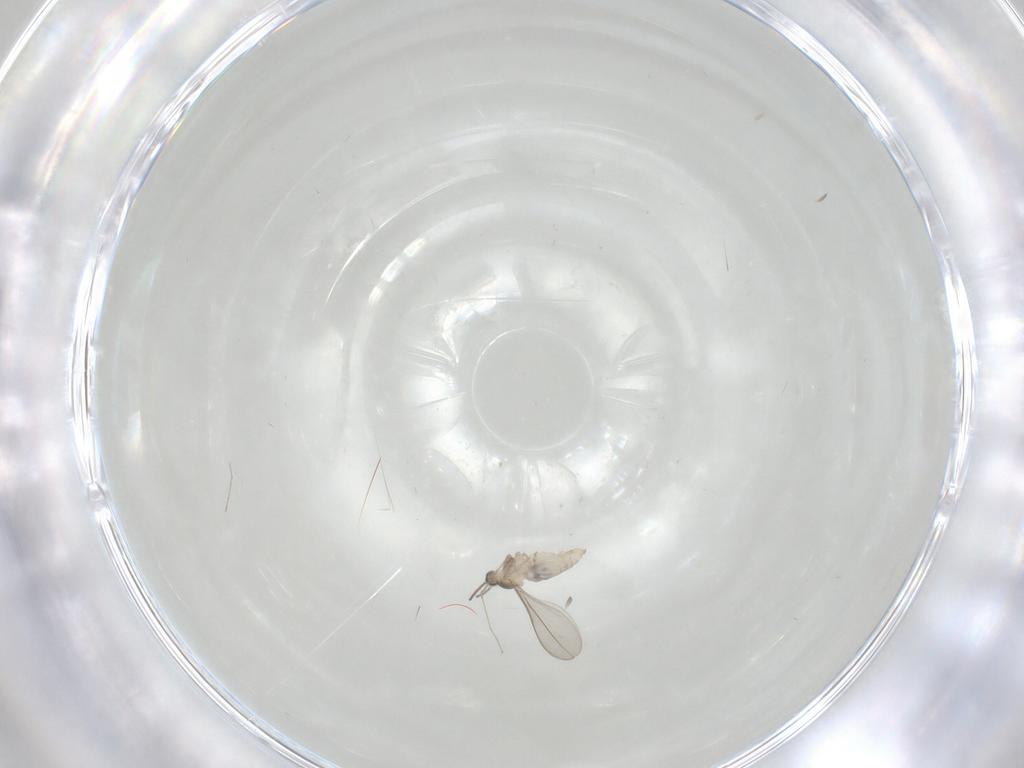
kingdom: Animalia
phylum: Arthropoda
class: Insecta
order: Diptera
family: Cecidomyiidae
